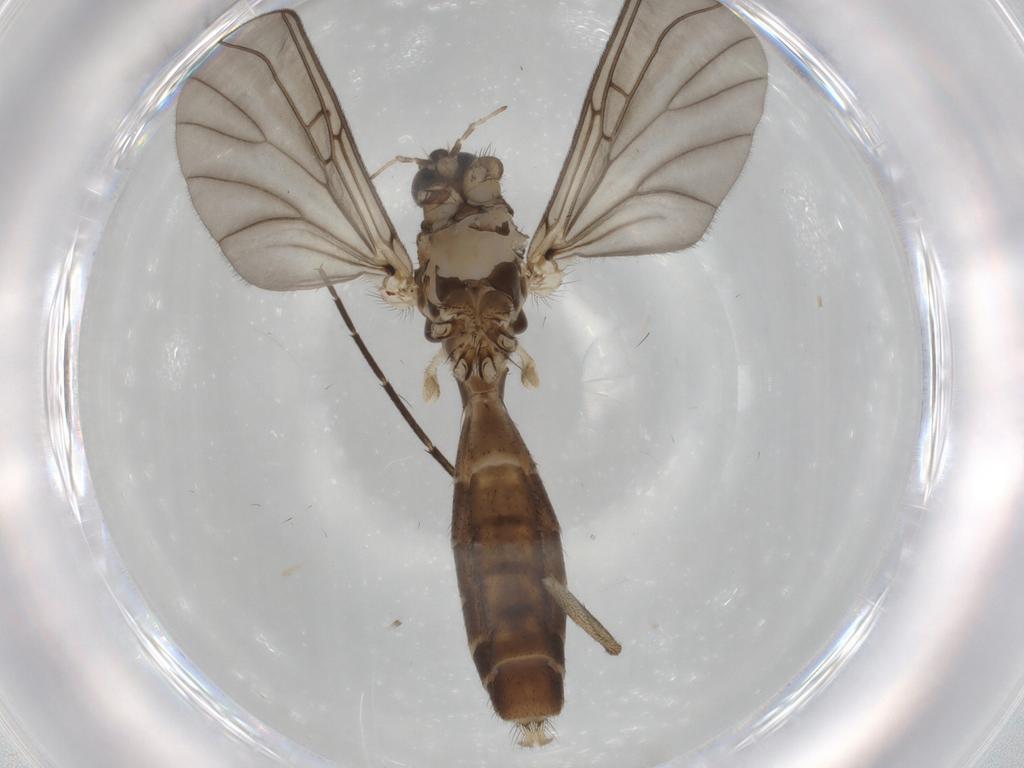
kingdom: Animalia
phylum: Arthropoda
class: Insecta
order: Diptera
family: Mycetophilidae
